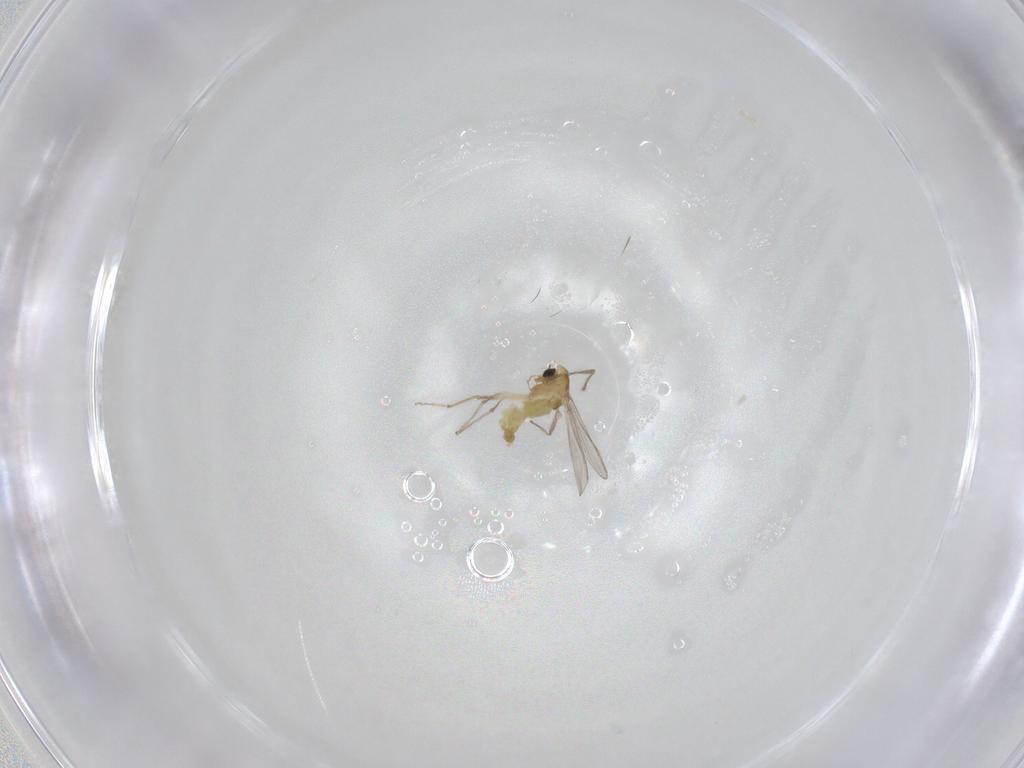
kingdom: Animalia
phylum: Arthropoda
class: Insecta
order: Diptera
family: Chironomidae
